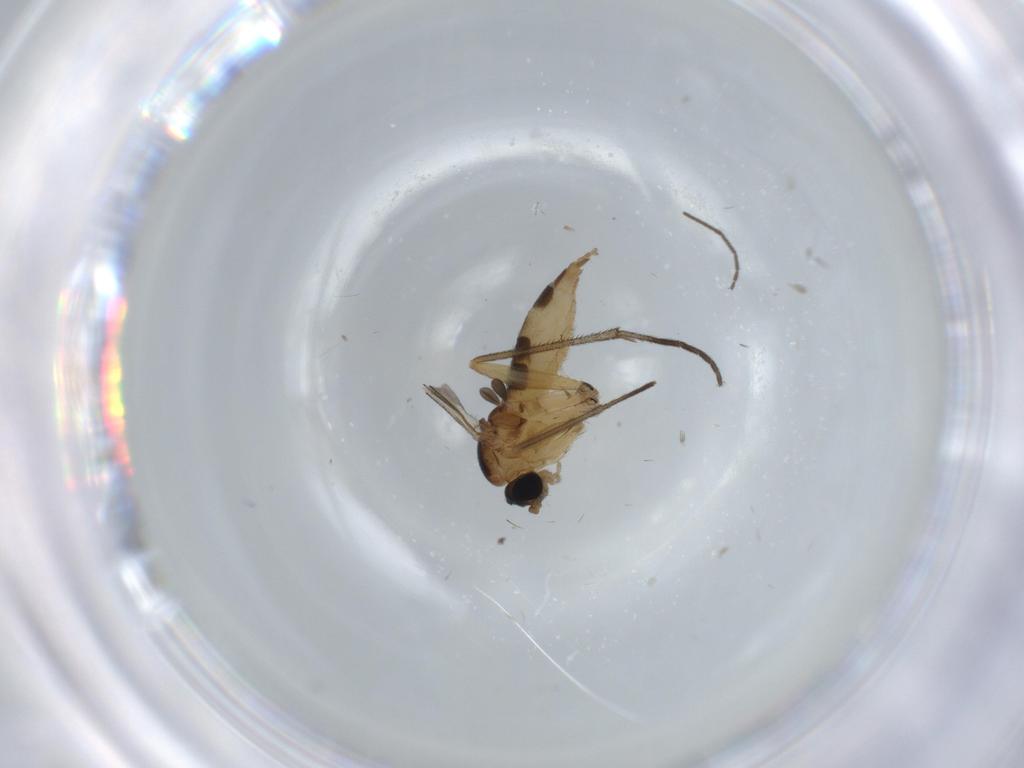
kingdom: Animalia
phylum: Arthropoda
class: Insecta
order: Diptera
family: Sciaridae
